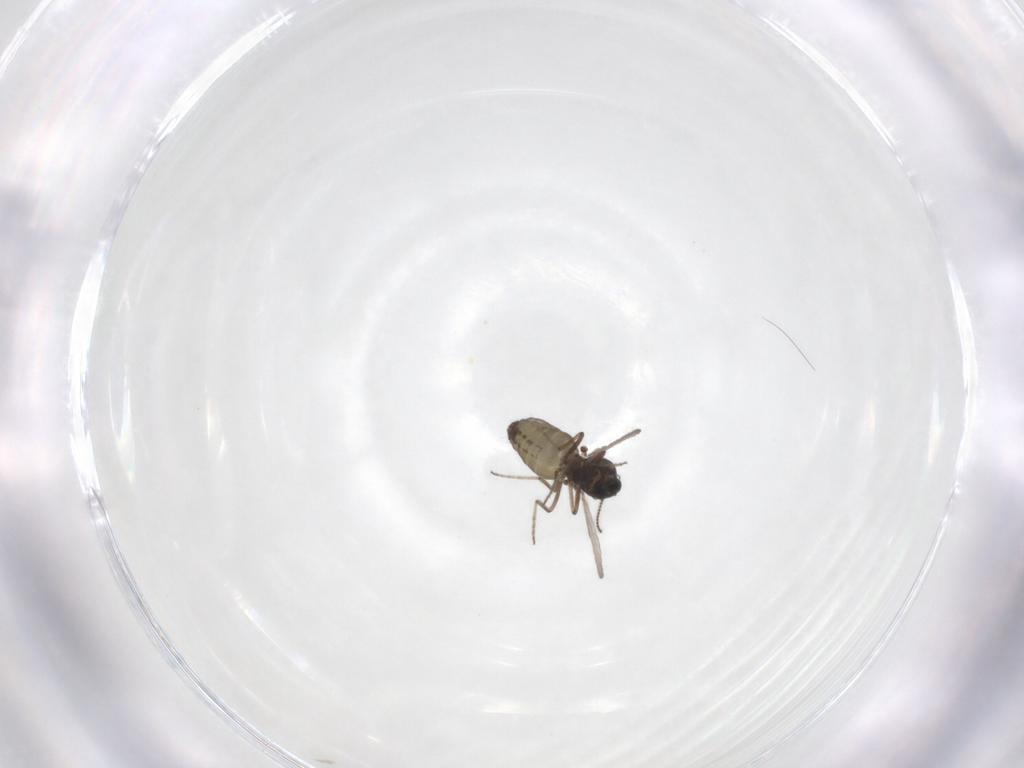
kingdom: Animalia
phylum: Arthropoda
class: Insecta
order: Diptera
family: Ceratopogonidae
